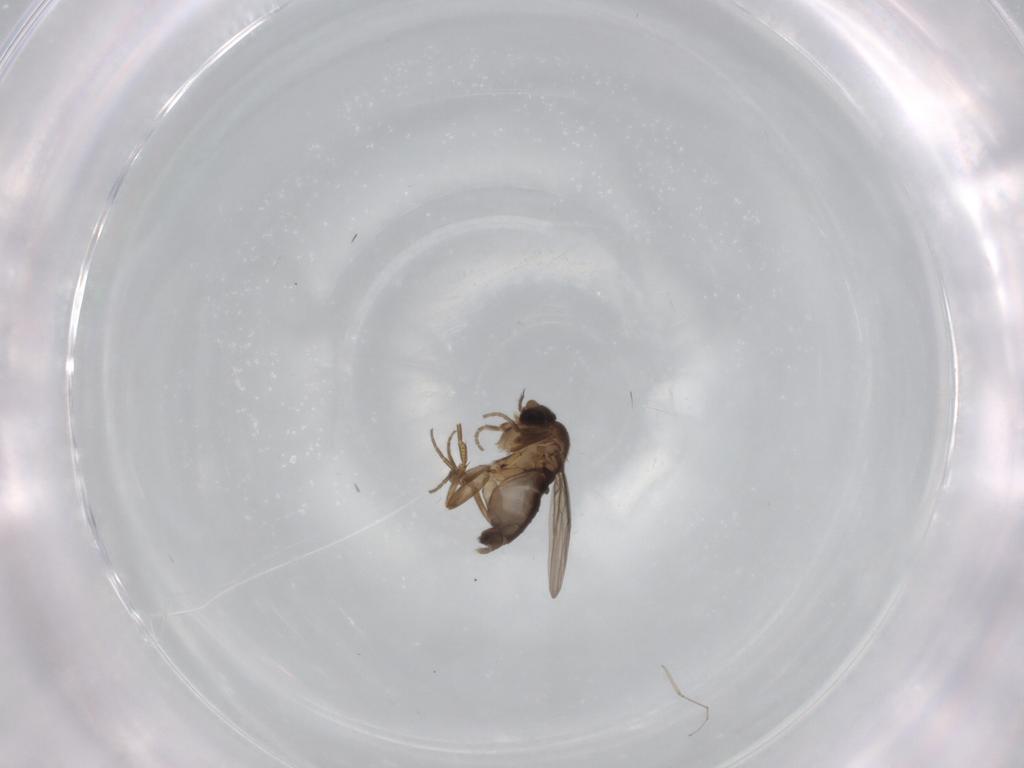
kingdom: Animalia
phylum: Arthropoda
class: Insecta
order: Diptera
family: Phoridae
